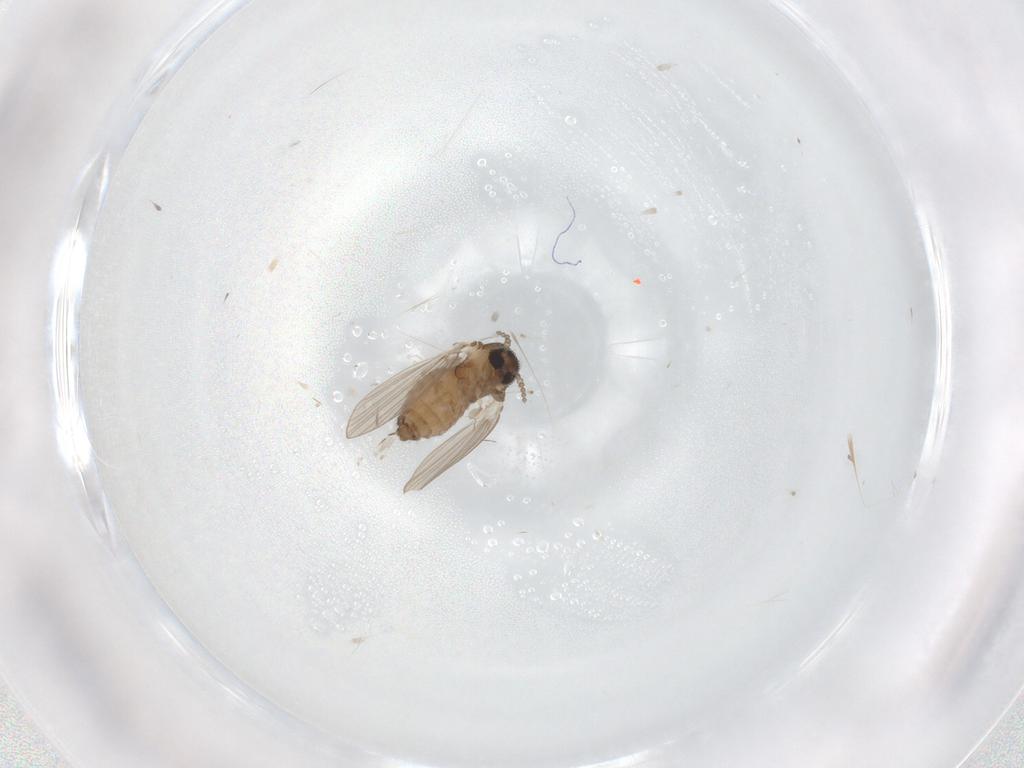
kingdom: Animalia
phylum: Arthropoda
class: Insecta
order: Diptera
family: Psychodidae
